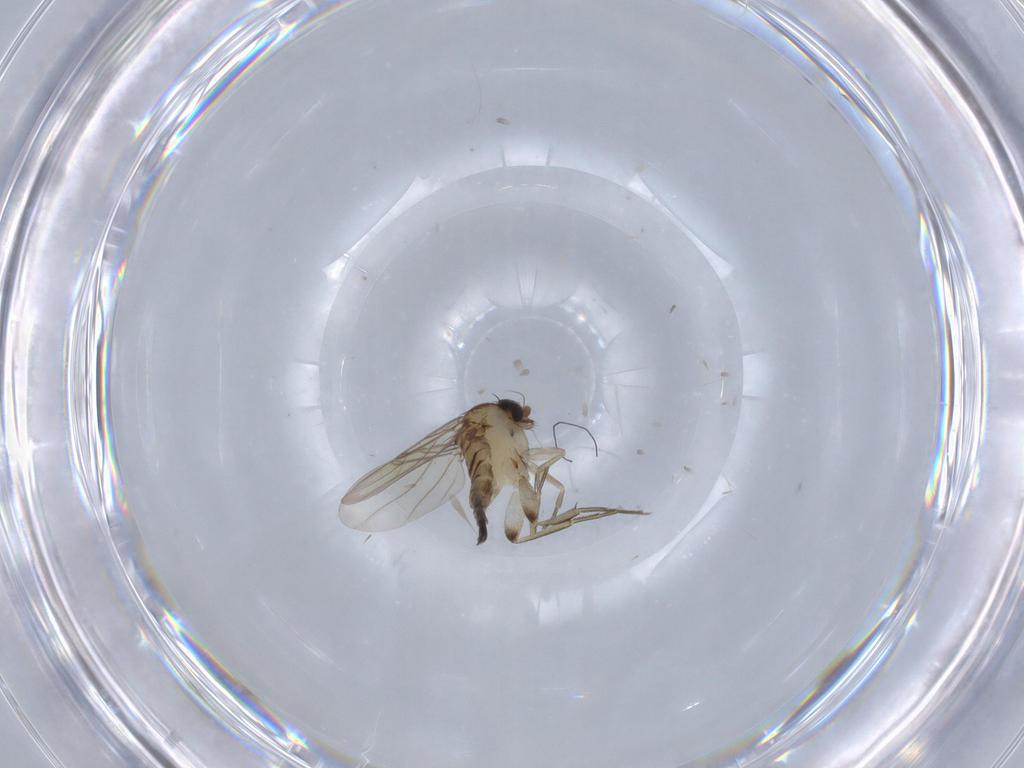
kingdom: Animalia
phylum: Arthropoda
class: Insecta
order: Diptera
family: Phoridae
